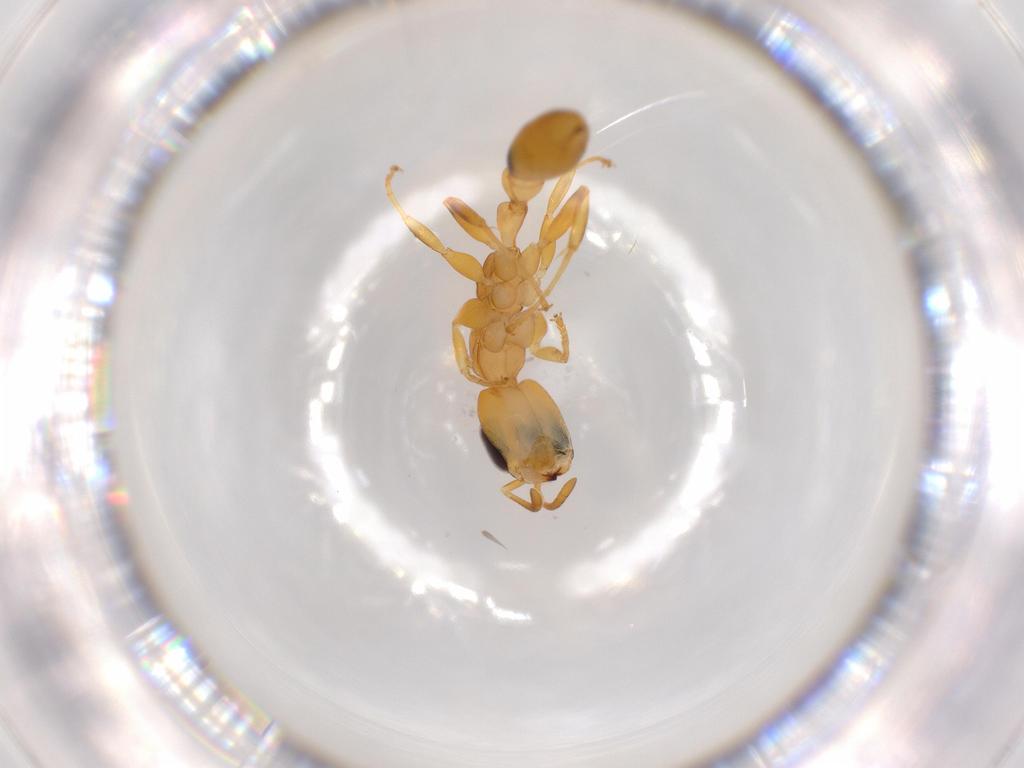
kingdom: Animalia
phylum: Arthropoda
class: Insecta
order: Hymenoptera
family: Formicidae
